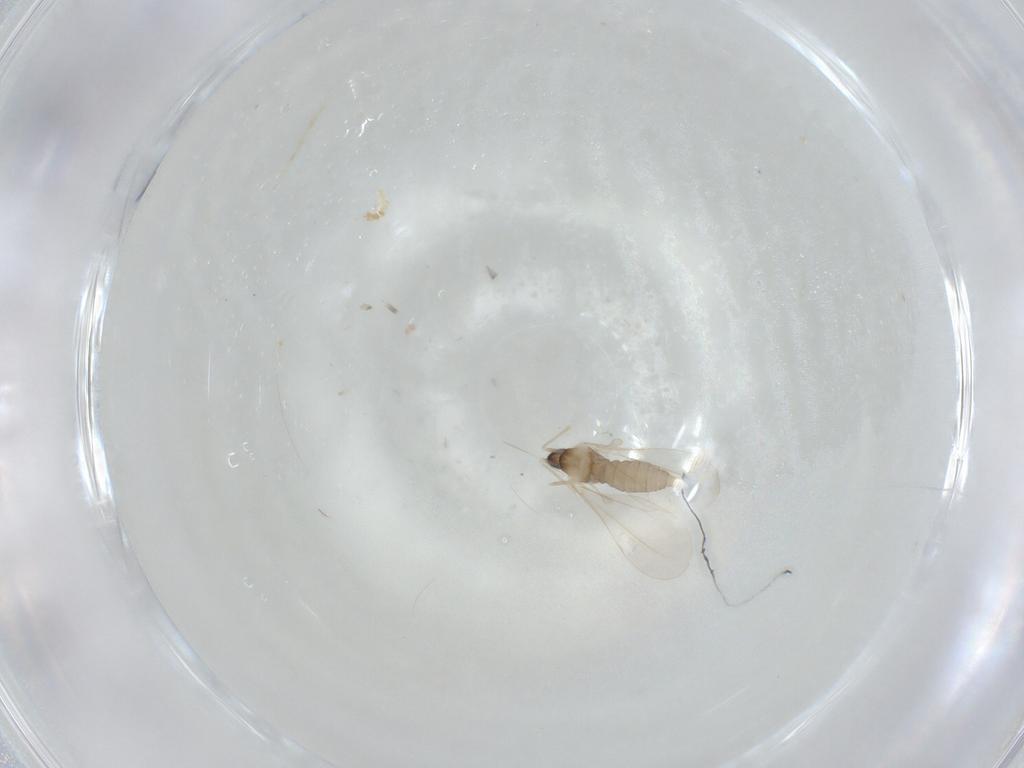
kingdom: Animalia
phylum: Arthropoda
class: Insecta
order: Diptera
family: Cecidomyiidae
